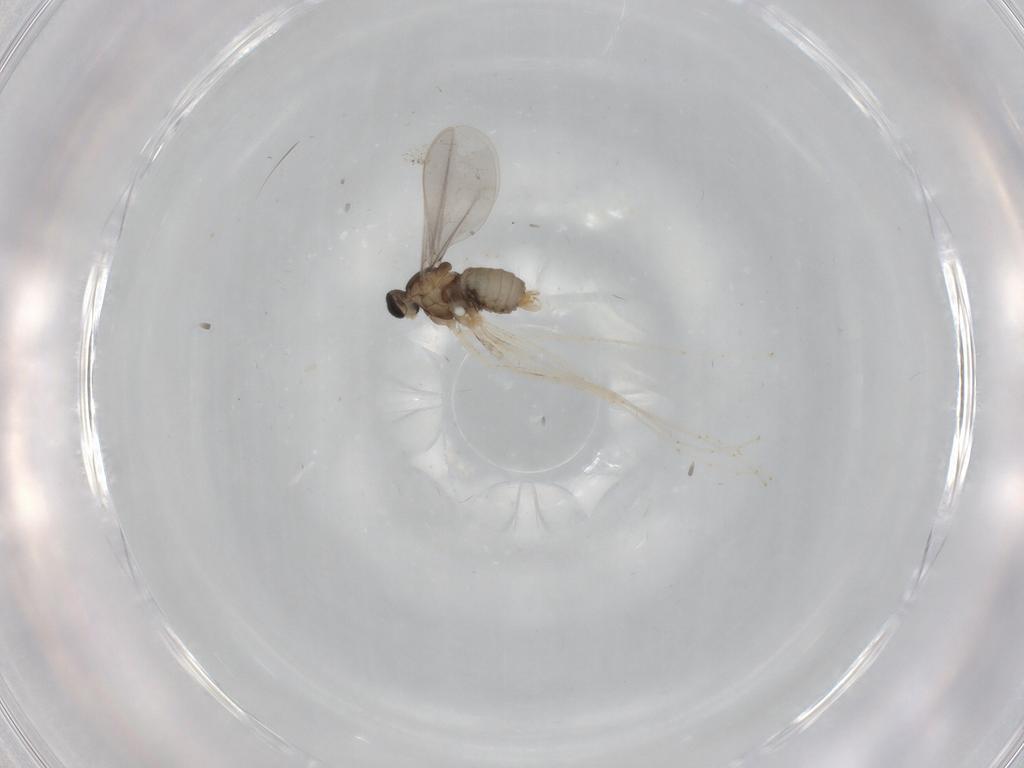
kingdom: Animalia
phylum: Arthropoda
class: Insecta
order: Diptera
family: Cecidomyiidae
